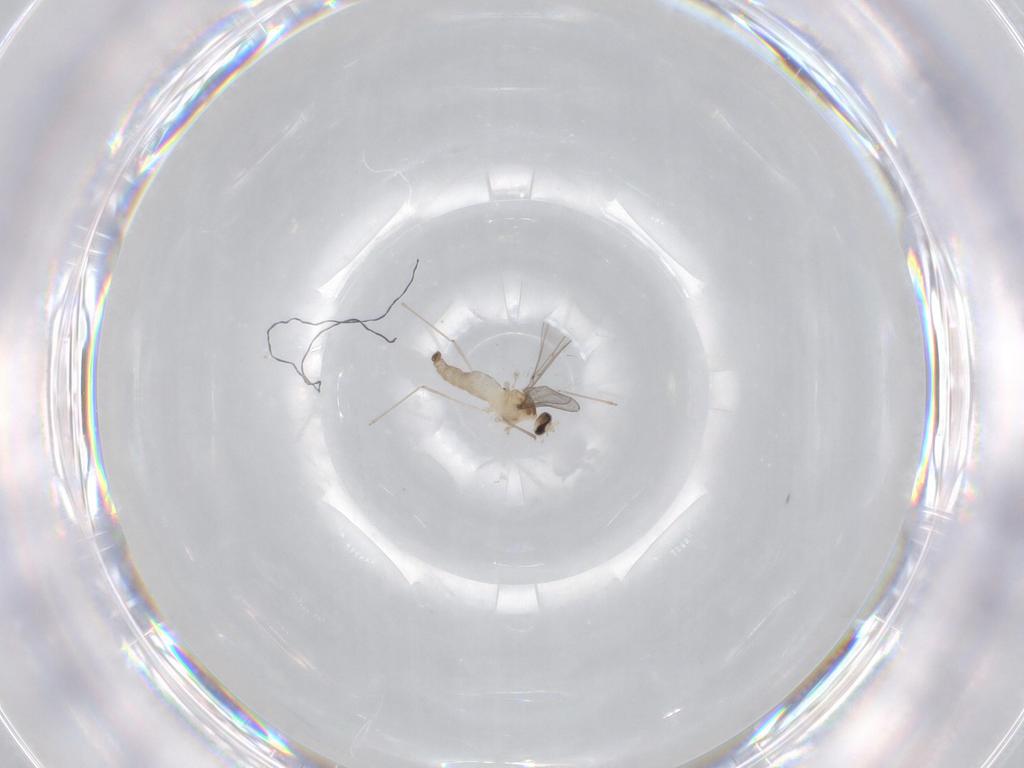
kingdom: Animalia
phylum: Arthropoda
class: Insecta
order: Diptera
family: Cecidomyiidae
